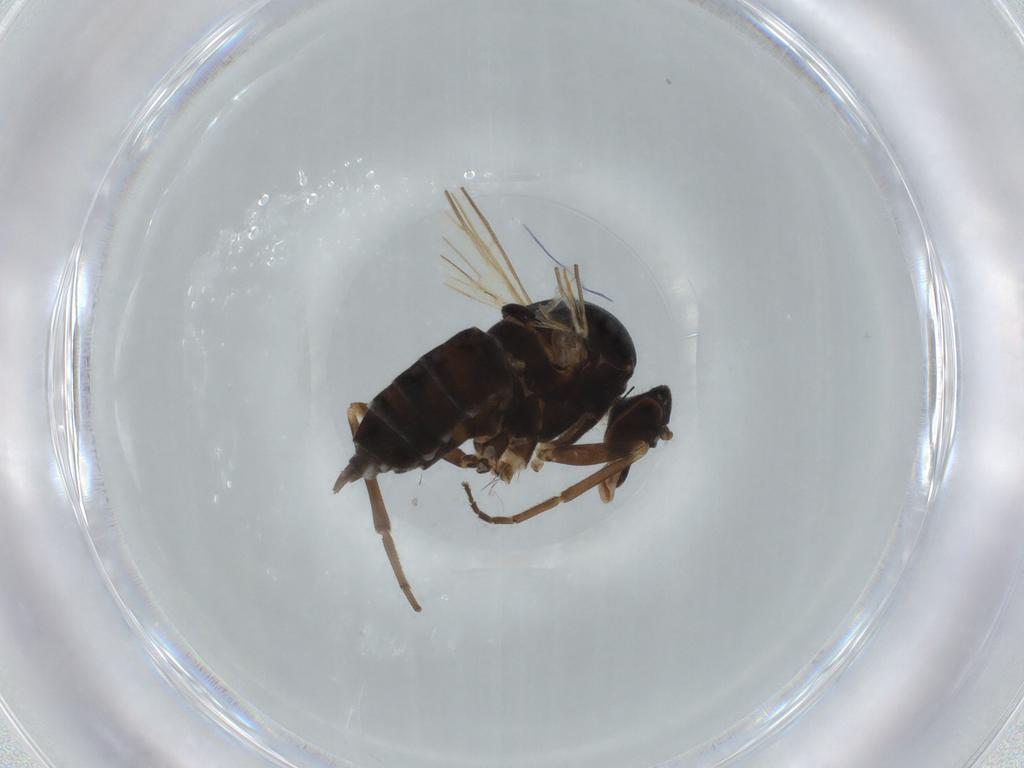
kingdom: Animalia
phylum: Arthropoda
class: Insecta
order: Diptera
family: Empididae
